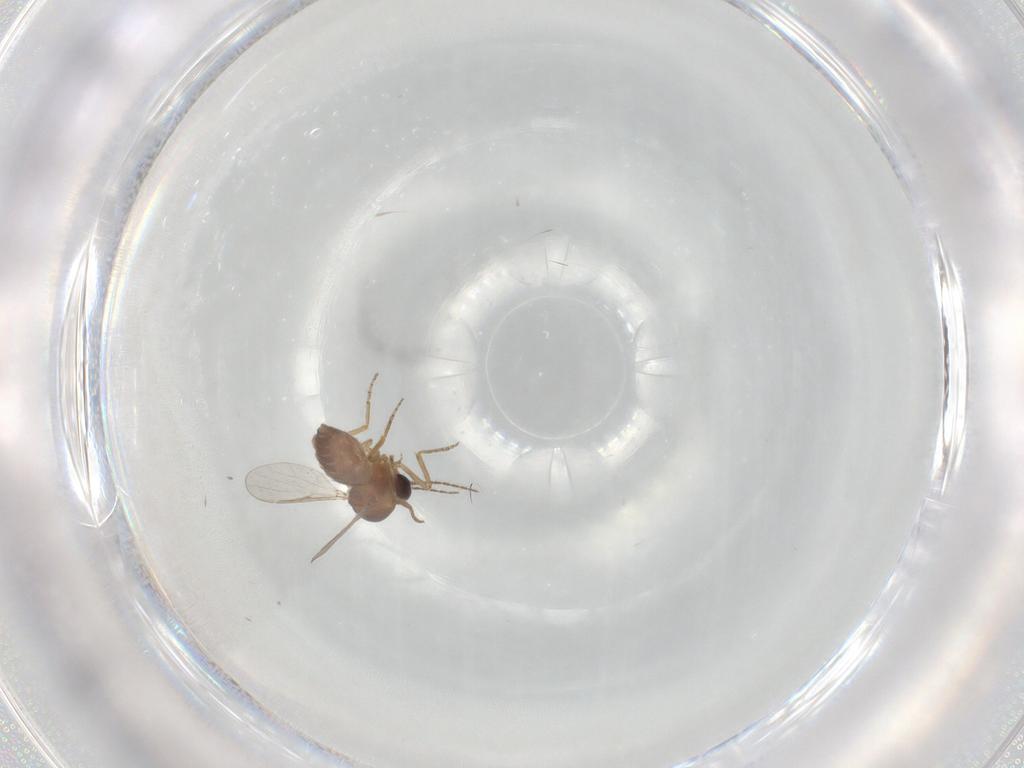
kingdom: Animalia
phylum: Arthropoda
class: Insecta
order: Diptera
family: Ceratopogonidae
